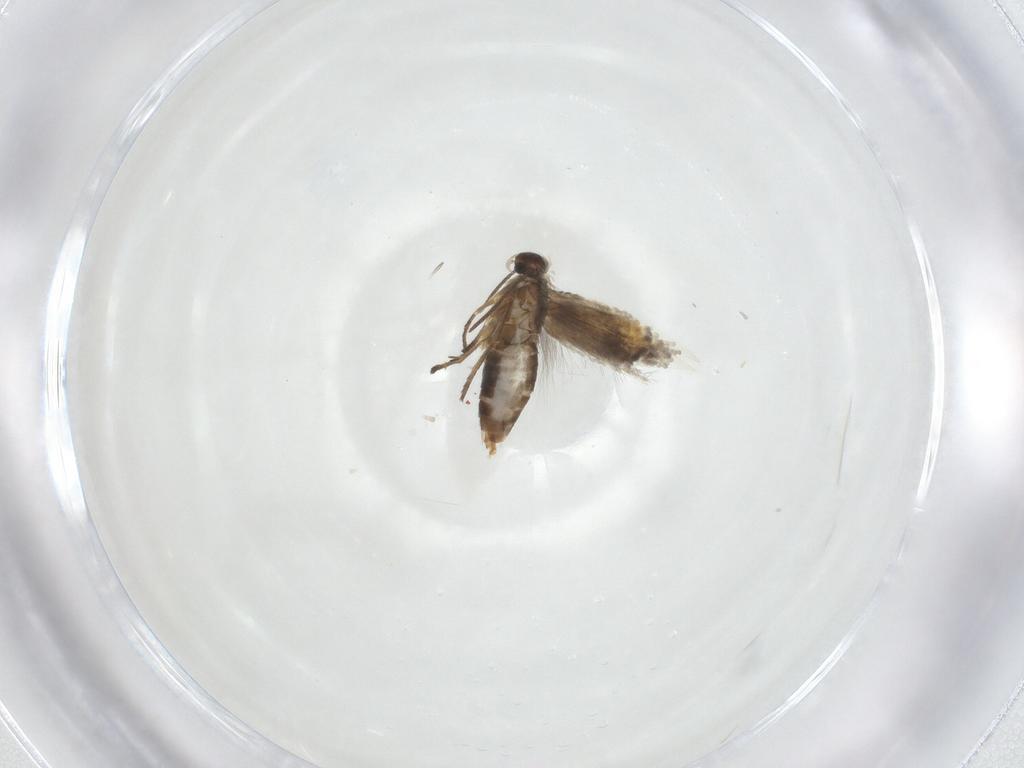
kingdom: Animalia
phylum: Arthropoda
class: Insecta
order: Lepidoptera
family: Heliozelidae
